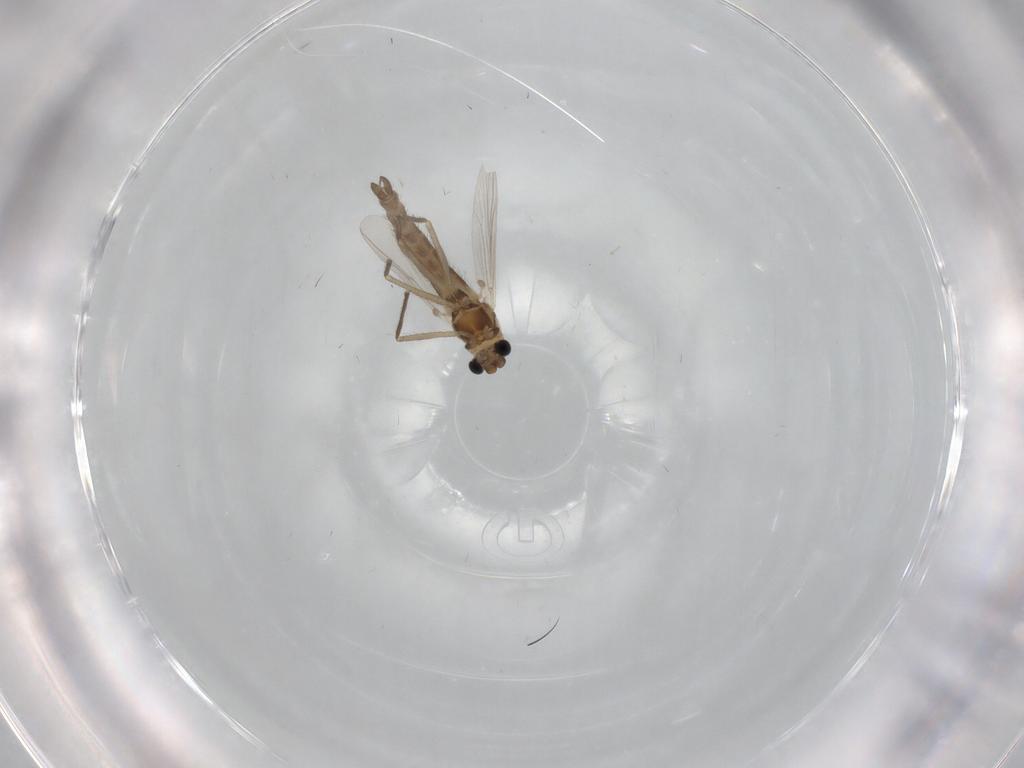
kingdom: Animalia
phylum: Arthropoda
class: Insecta
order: Diptera
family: Chironomidae
